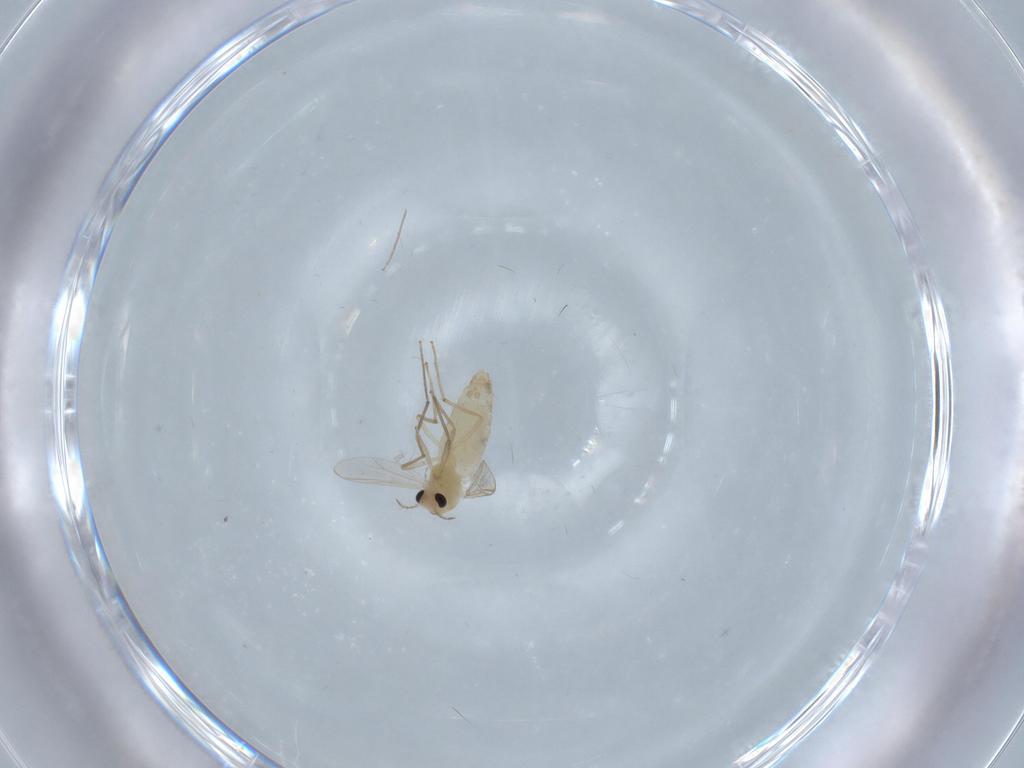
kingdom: Animalia
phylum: Arthropoda
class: Insecta
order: Diptera
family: Chironomidae
